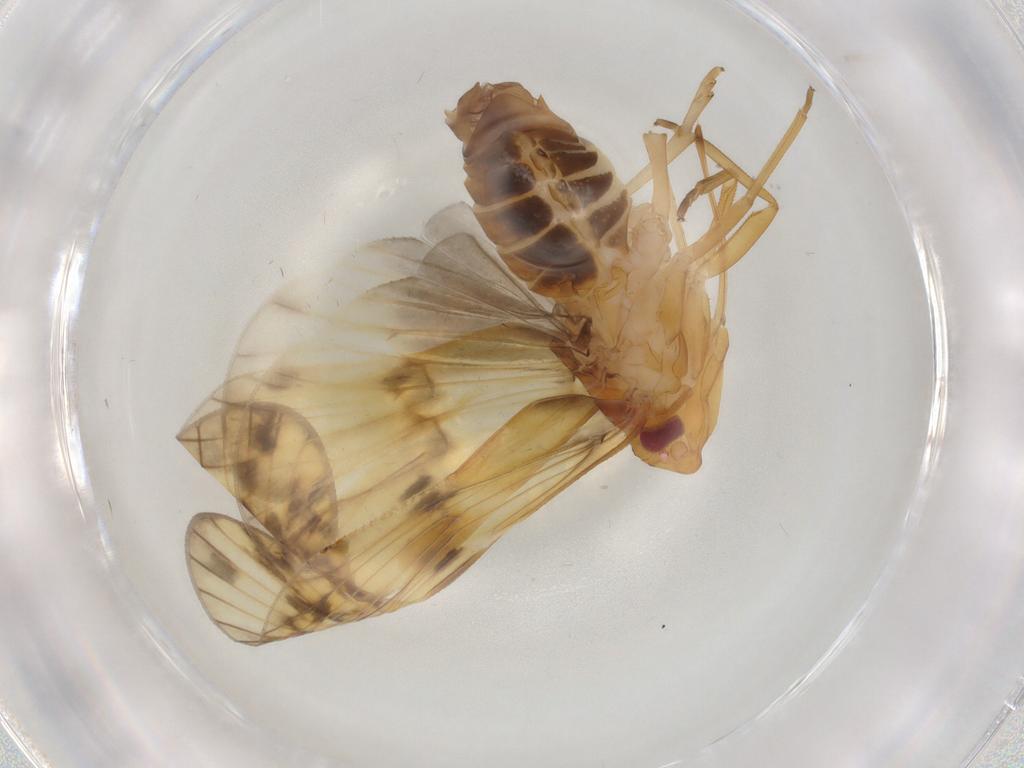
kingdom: Animalia
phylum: Arthropoda
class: Insecta
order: Hemiptera
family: Cixiidae
